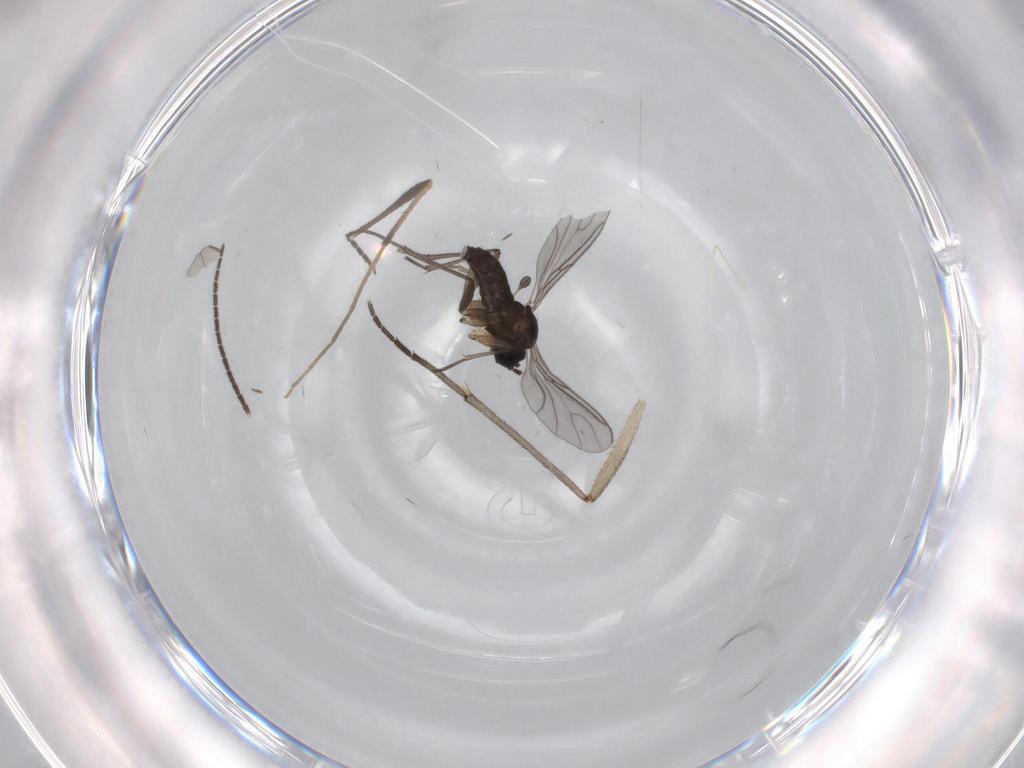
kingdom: Animalia
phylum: Arthropoda
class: Insecta
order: Diptera
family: Sciaridae
